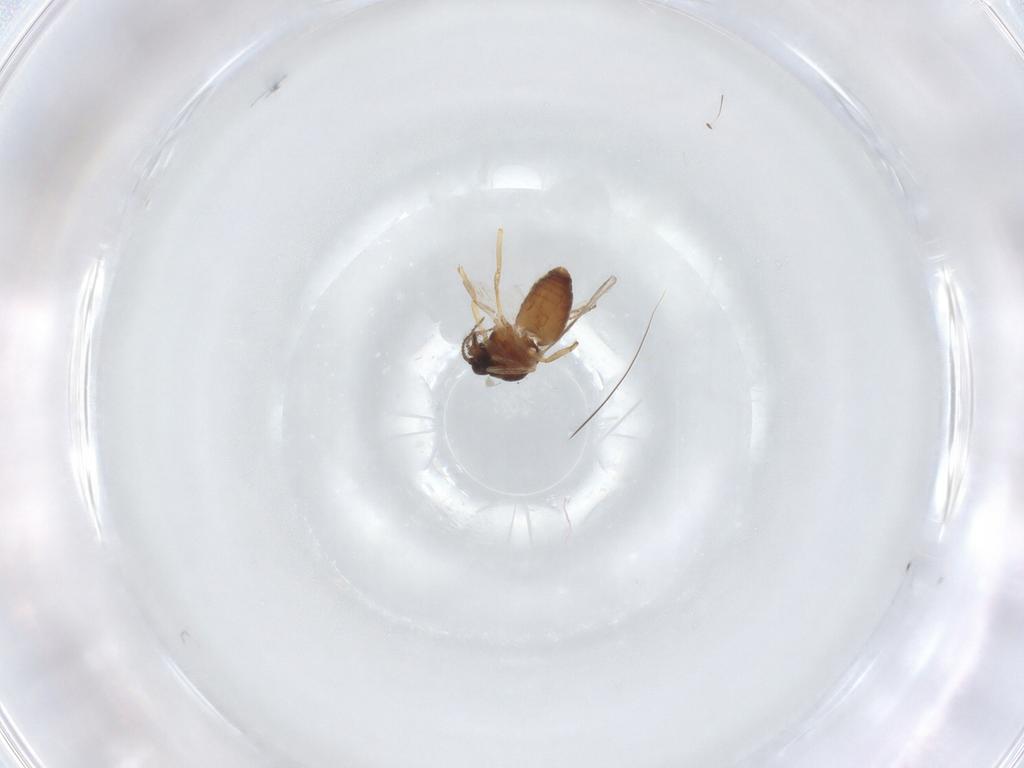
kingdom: Animalia
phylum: Arthropoda
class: Insecta
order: Diptera
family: Ceratopogonidae
